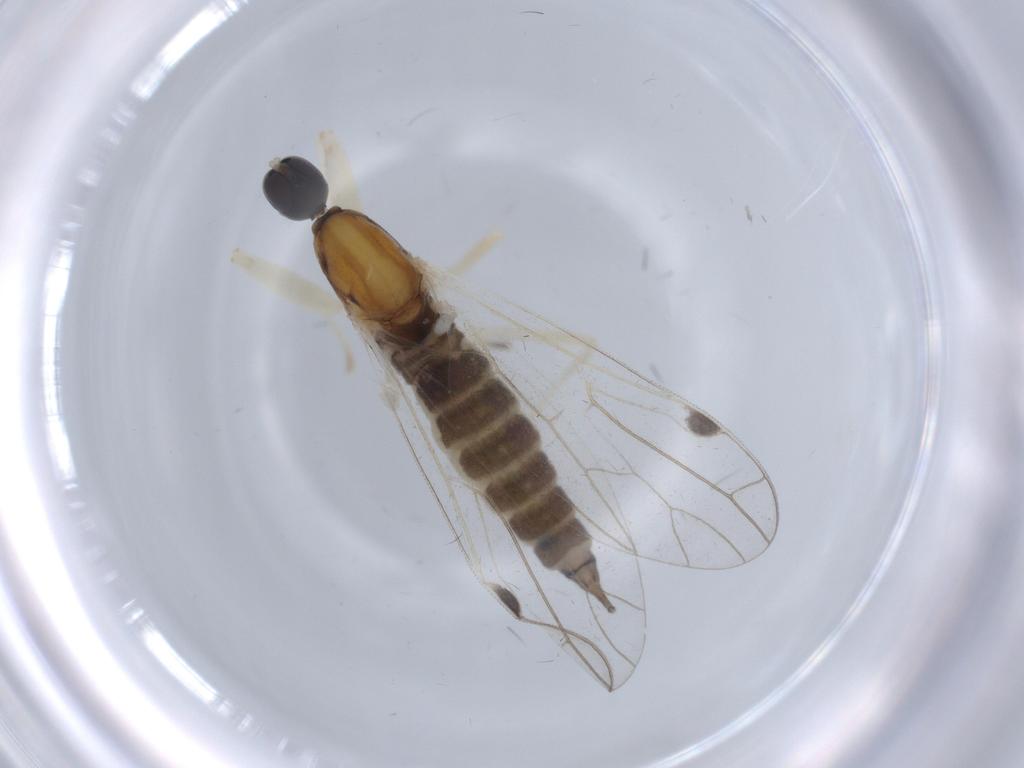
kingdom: Animalia
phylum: Arthropoda
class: Insecta
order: Diptera
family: Empididae
